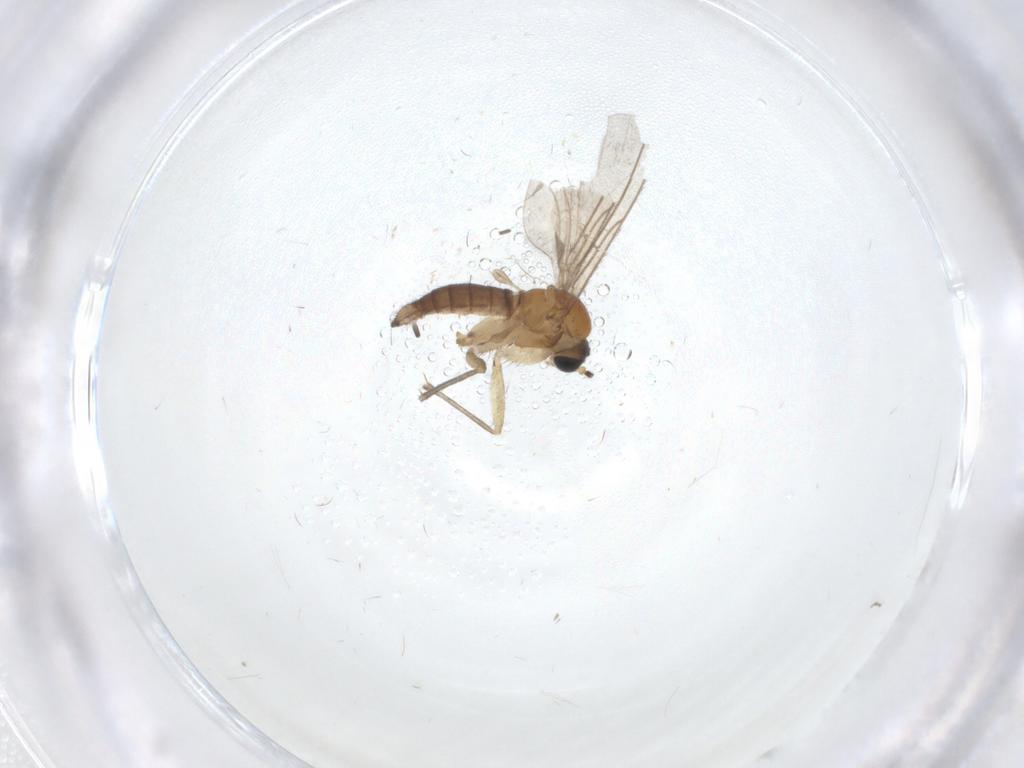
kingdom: Animalia
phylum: Arthropoda
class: Insecta
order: Diptera
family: Sciaridae
